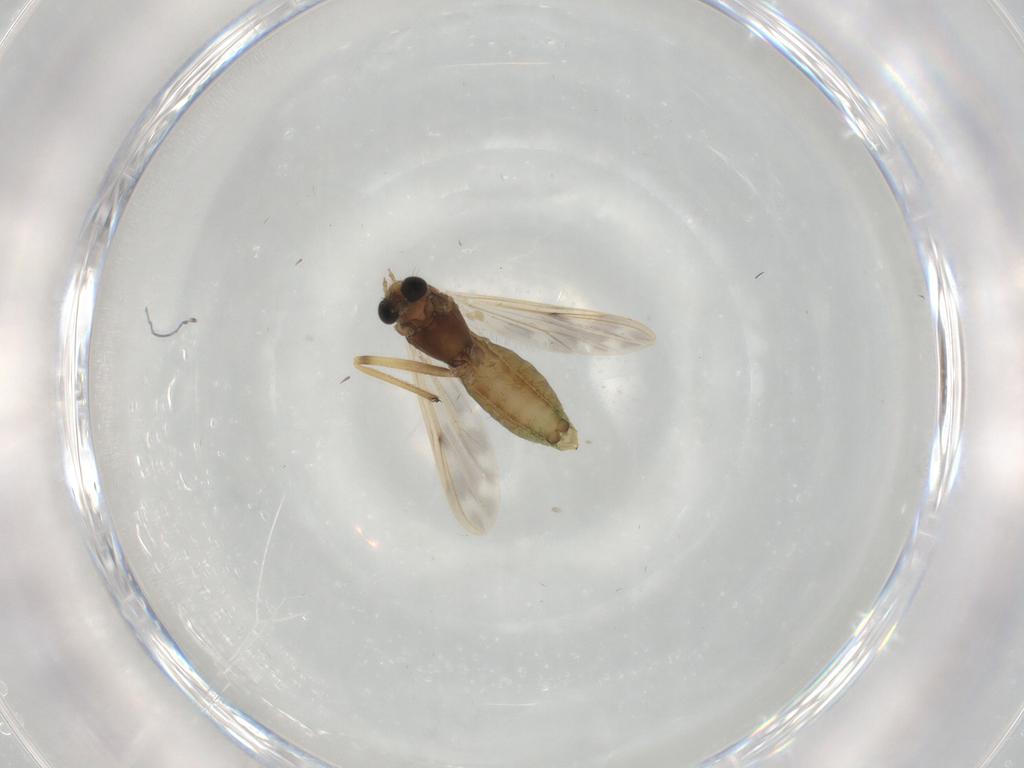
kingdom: Animalia
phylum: Arthropoda
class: Insecta
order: Diptera
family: Chironomidae
